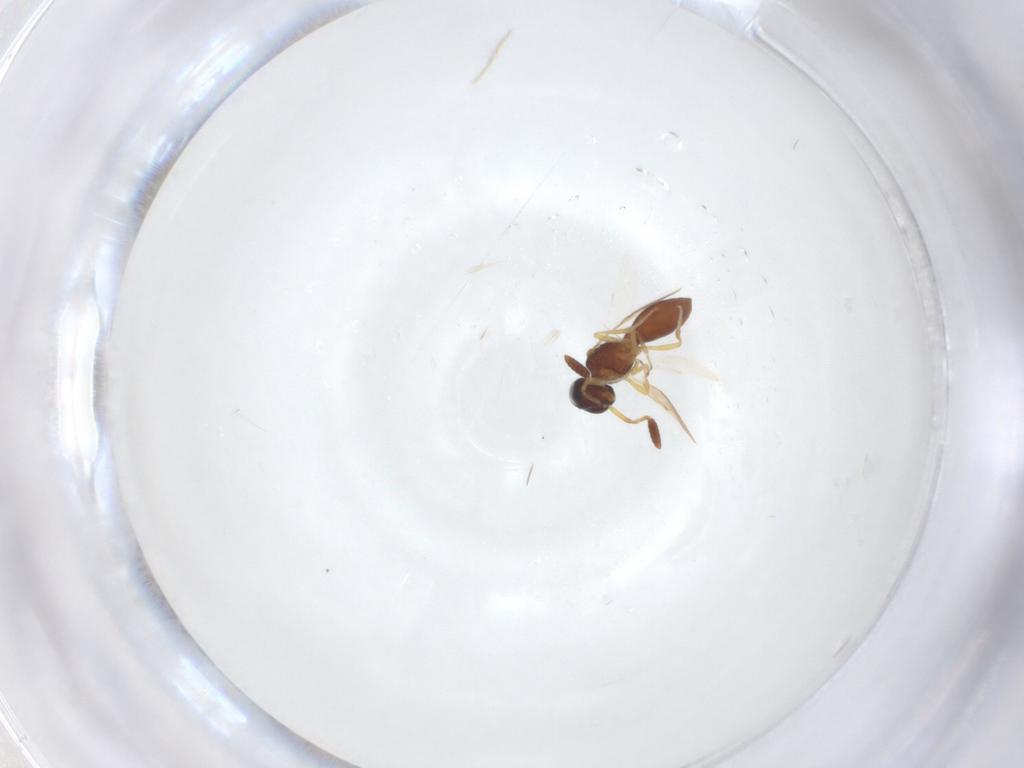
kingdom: Animalia
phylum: Arthropoda
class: Insecta
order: Hymenoptera
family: Scelionidae
